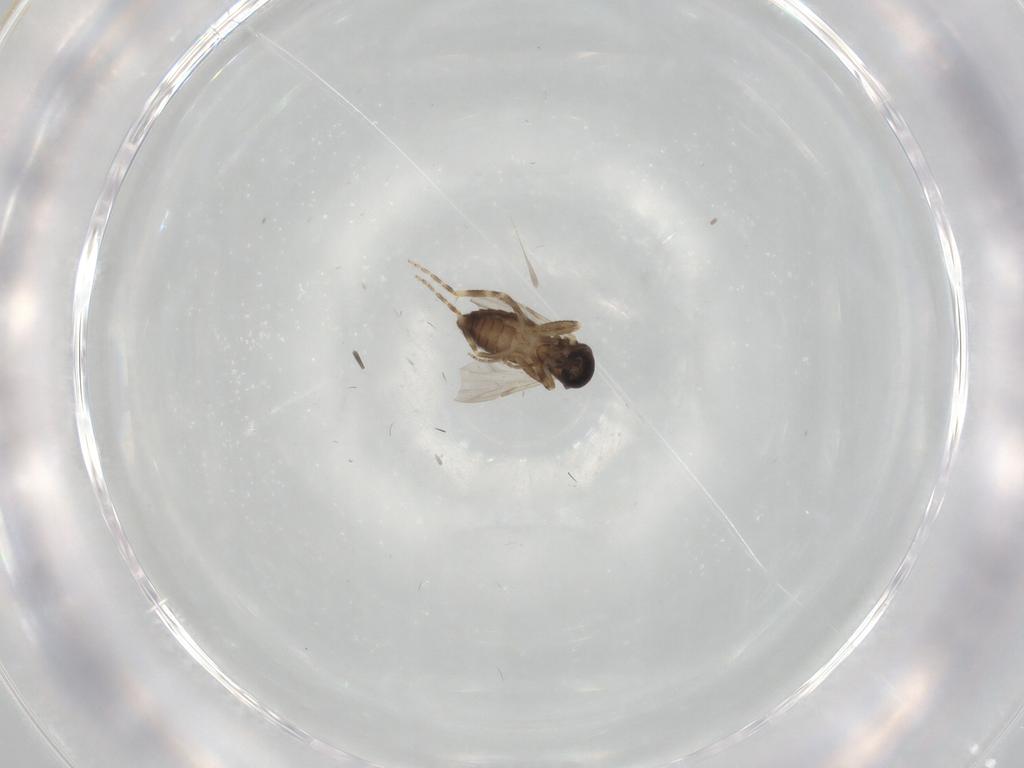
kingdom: Animalia
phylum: Arthropoda
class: Insecta
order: Diptera
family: Ceratopogonidae
